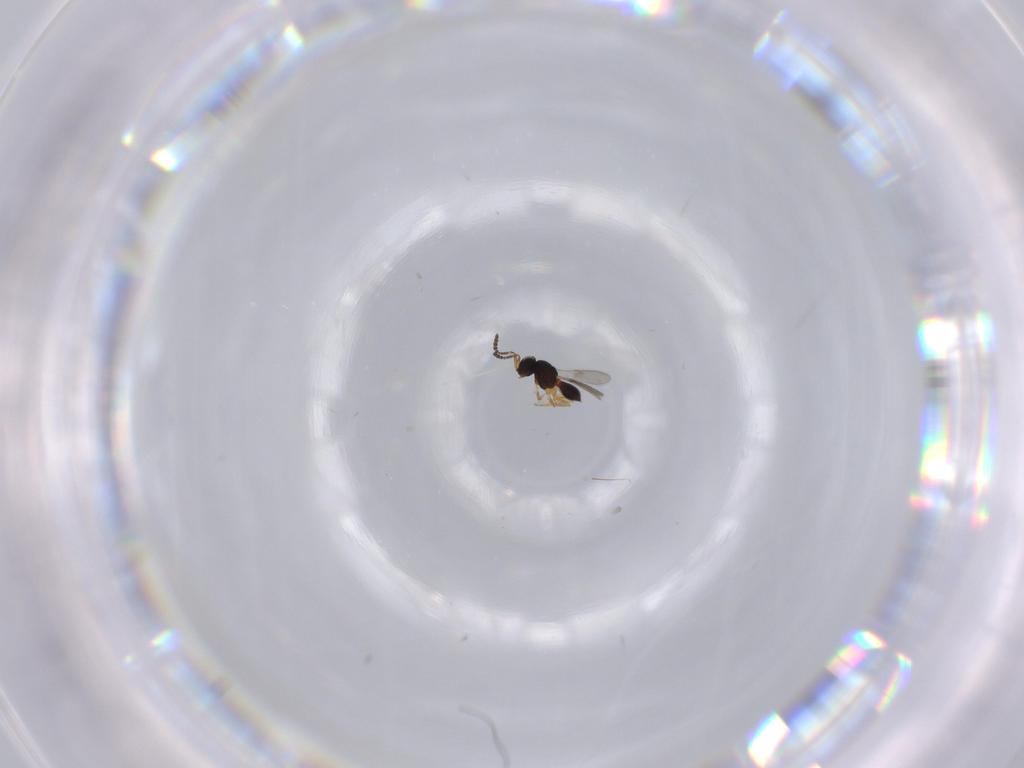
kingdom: Animalia
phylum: Arthropoda
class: Insecta
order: Hymenoptera
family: Scelionidae
